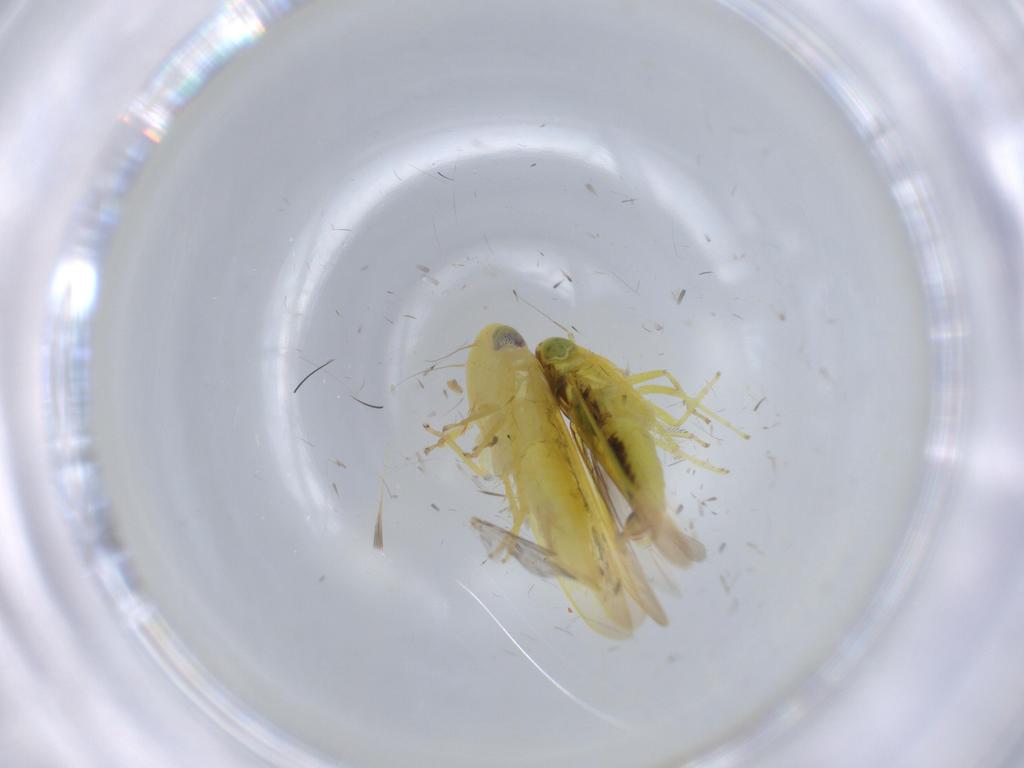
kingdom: Animalia
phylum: Arthropoda
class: Insecta
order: Hemiptera
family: Cicadellidae
